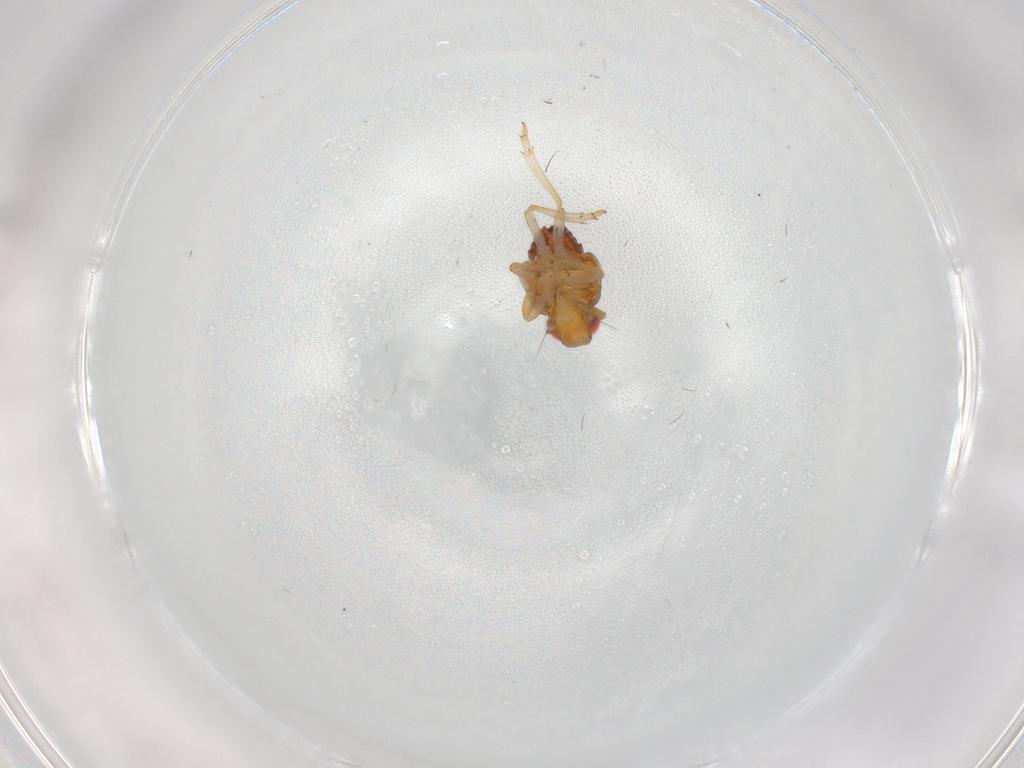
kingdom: Animalia
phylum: Arthropoda
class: Insecta
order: Hemiptera
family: Issidae
